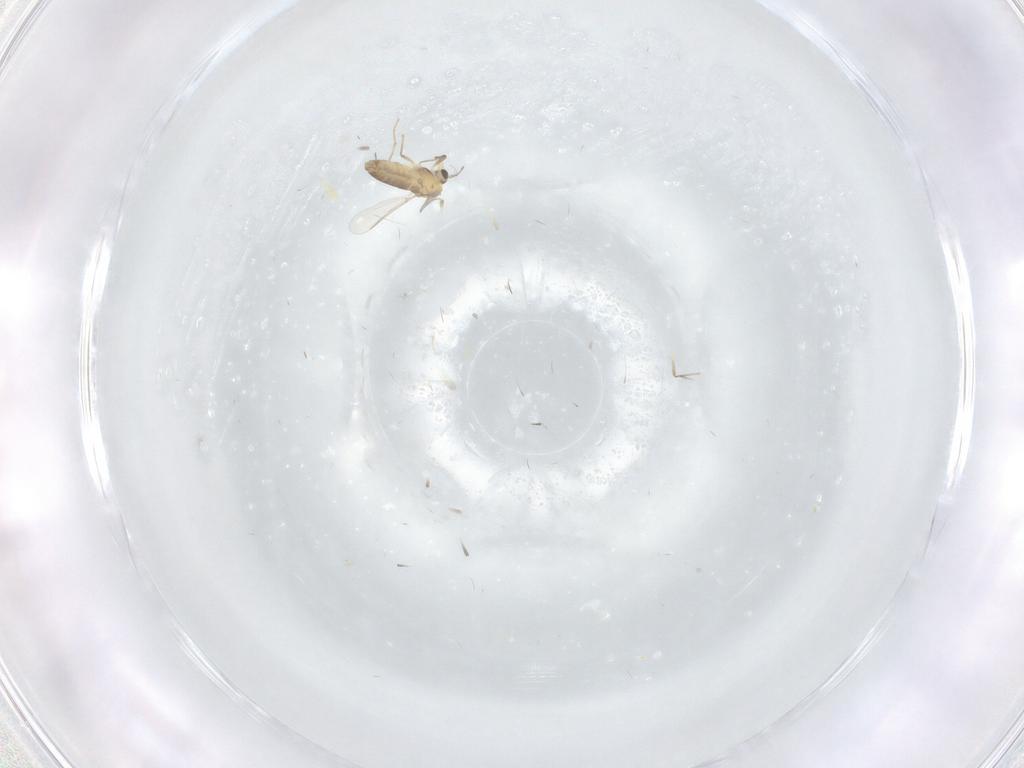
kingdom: Animalia
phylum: Arthropoda
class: Insecta
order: Diptera
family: Chironomidae
